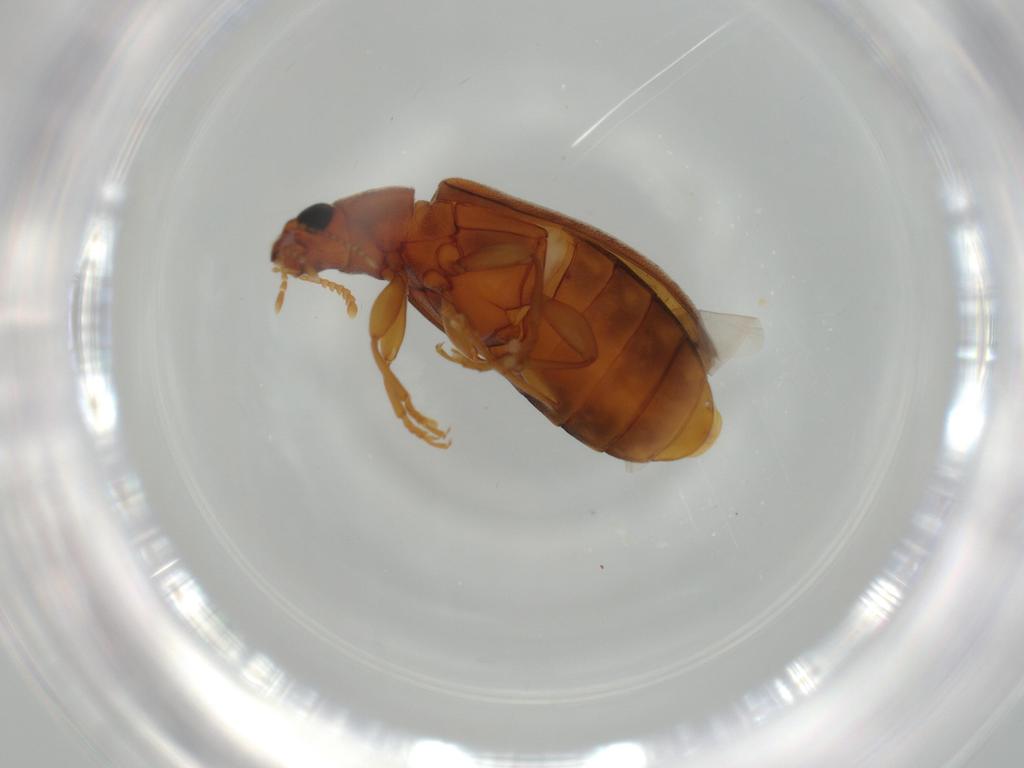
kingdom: Animalia
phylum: Arthropoda
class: Insecta
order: Coleoptera
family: Mycteridae
